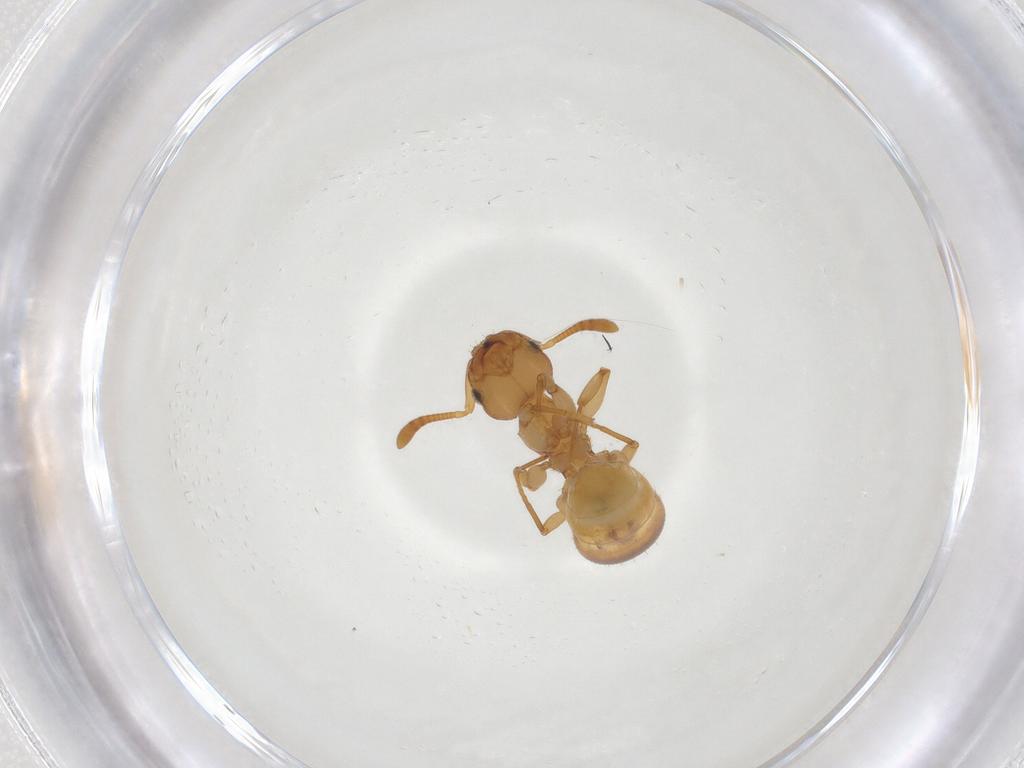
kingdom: Animalia
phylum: Arthropoda
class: Insecta
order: Hymenoptera
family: Formicidae
